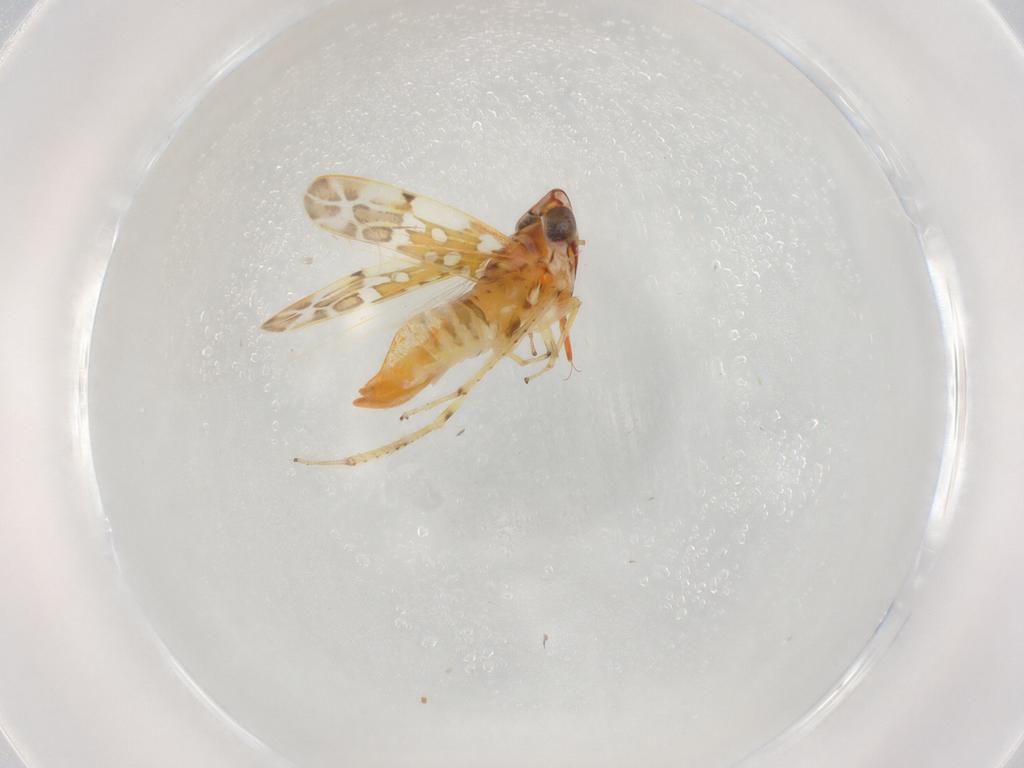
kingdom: Animalia
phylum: Arthropoda
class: Insecta
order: Hemiptera
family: Cicadellidae
